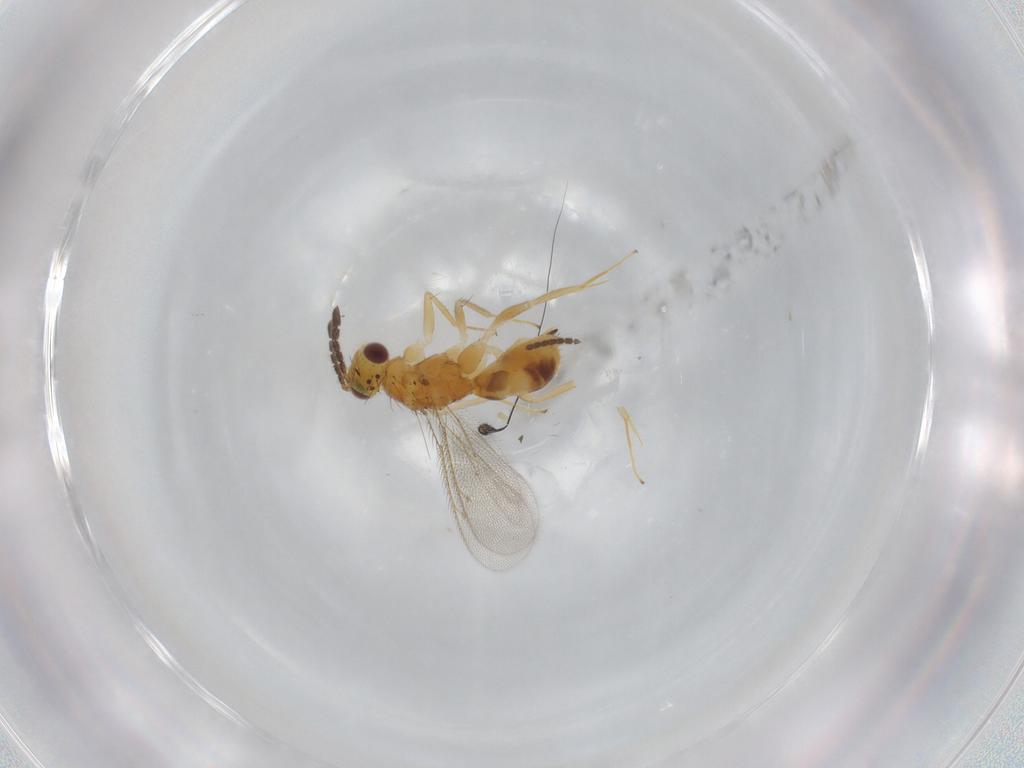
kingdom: Animalia
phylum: Arthropoda
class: Insecta
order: Hymenoptera
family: Eulophidae
